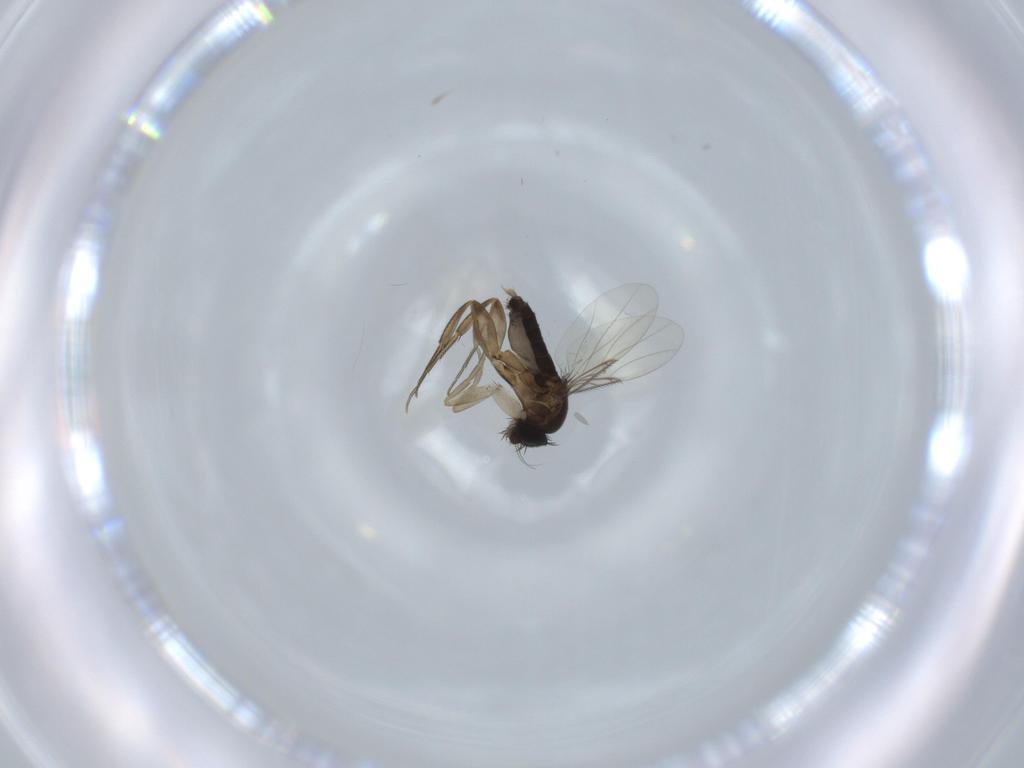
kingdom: Animalia
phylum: Arthropoda
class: Insecta
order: Diptera
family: Phoridae
